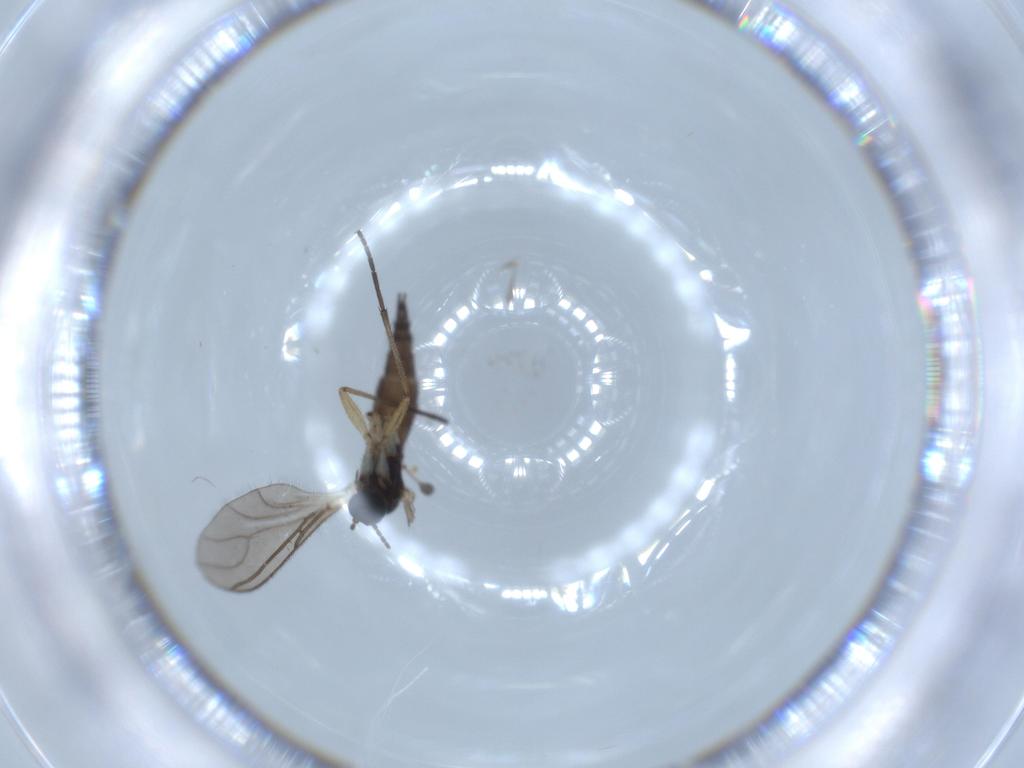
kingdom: Animalia
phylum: Arthropoda
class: Insecta
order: Diptera
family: Sciaridae
